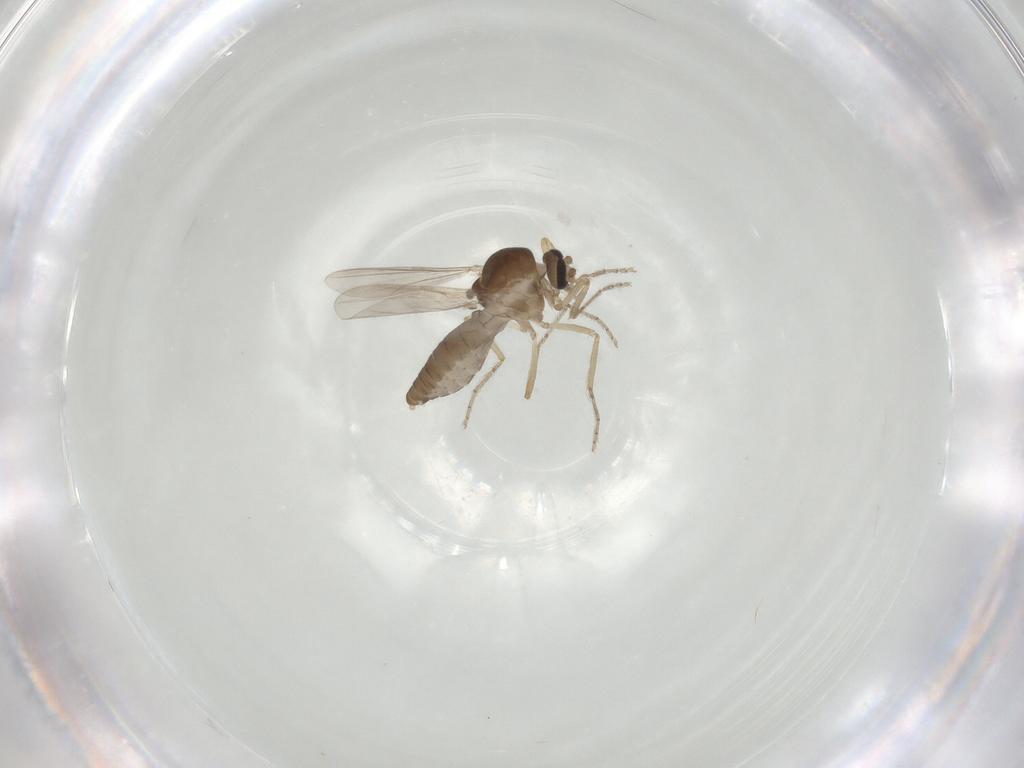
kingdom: Animalia
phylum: Arthropoda
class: Insecta
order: Diptera
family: Ceratopogonidae
